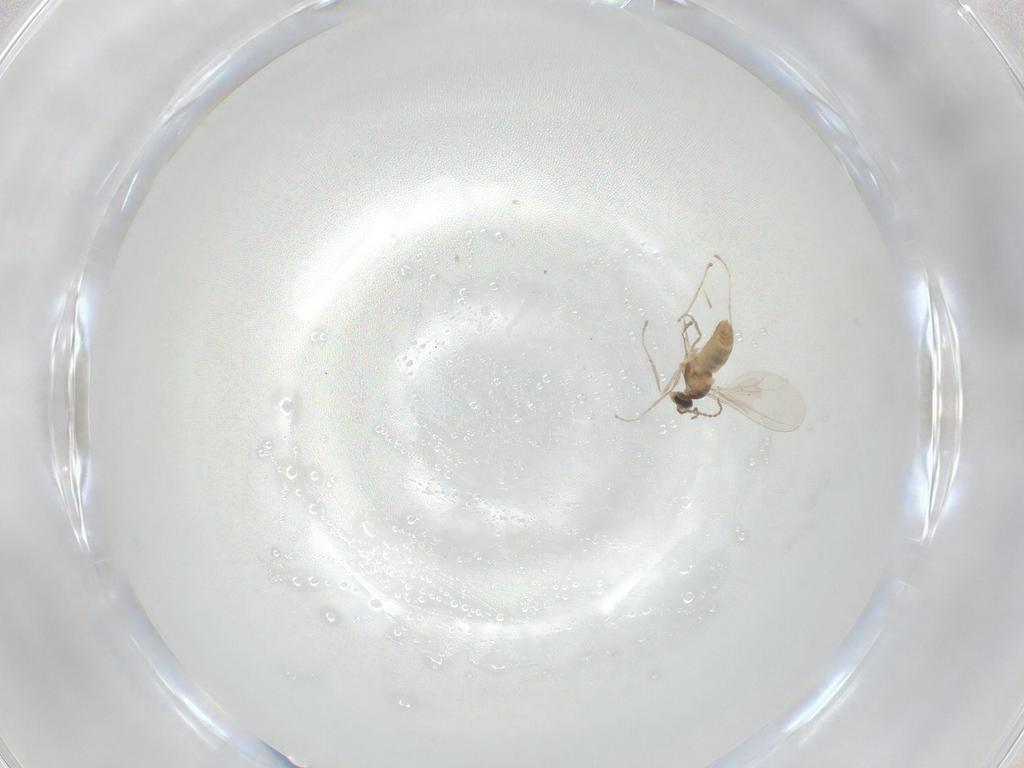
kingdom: Animalia
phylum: Arthropoda
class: Insecta
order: Diptera
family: Cecidomyiidae
